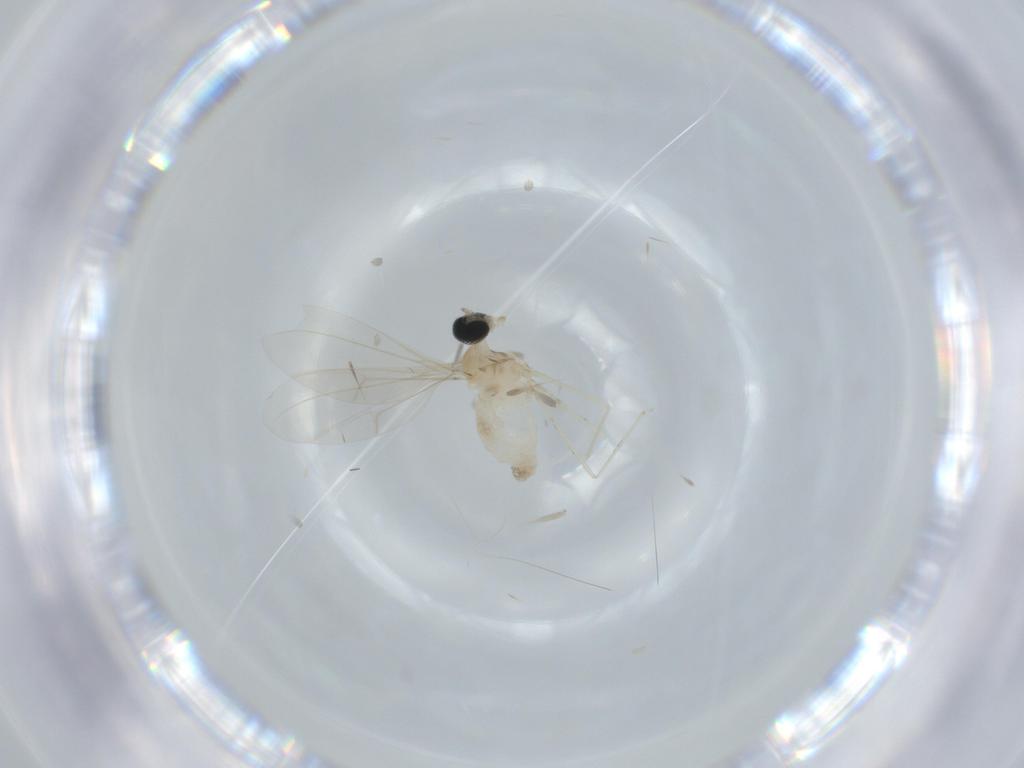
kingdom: Animalia
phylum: Arthropoda
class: Insecta
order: Diptera
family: Cecidomyiidae
